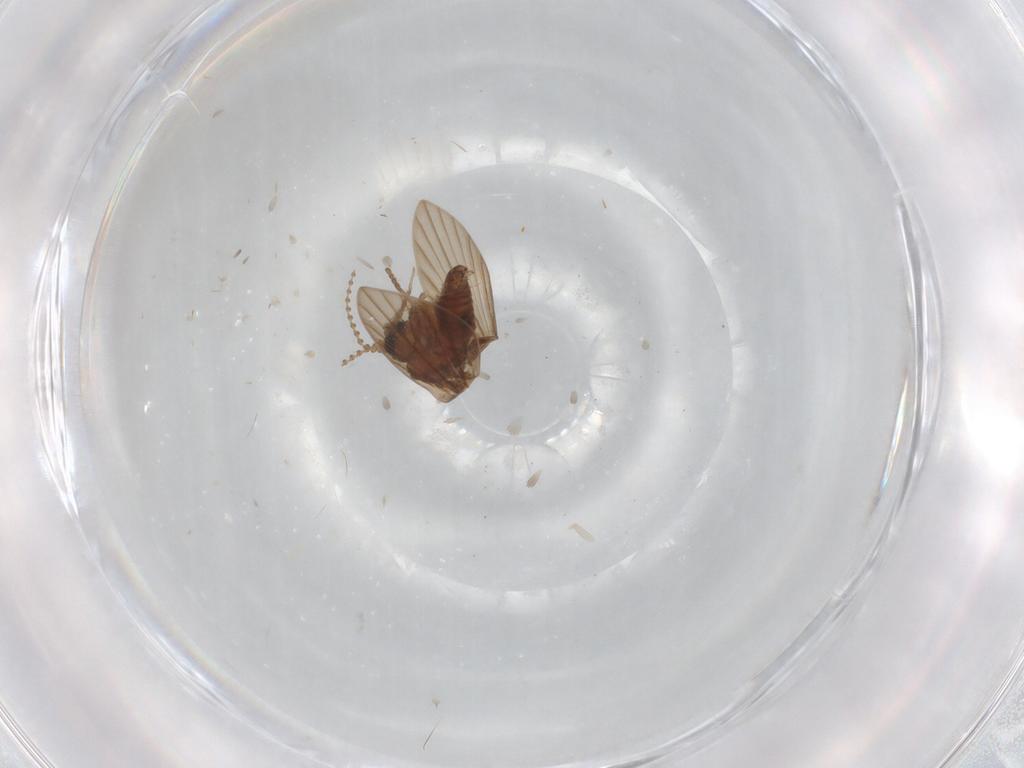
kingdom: Animalia
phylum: Arthropoda
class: Insecta
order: Diptera
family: Psychodidae
